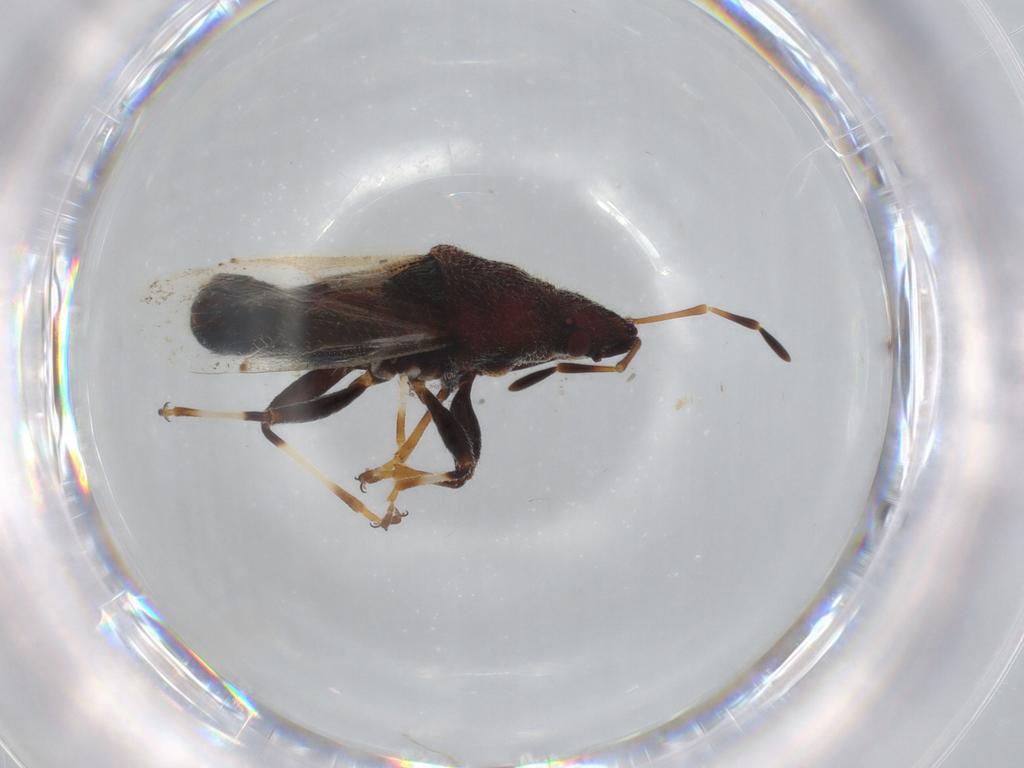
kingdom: Animalia
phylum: Arthropoda
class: Insecta
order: Hemiptera
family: Oxycarenidae
